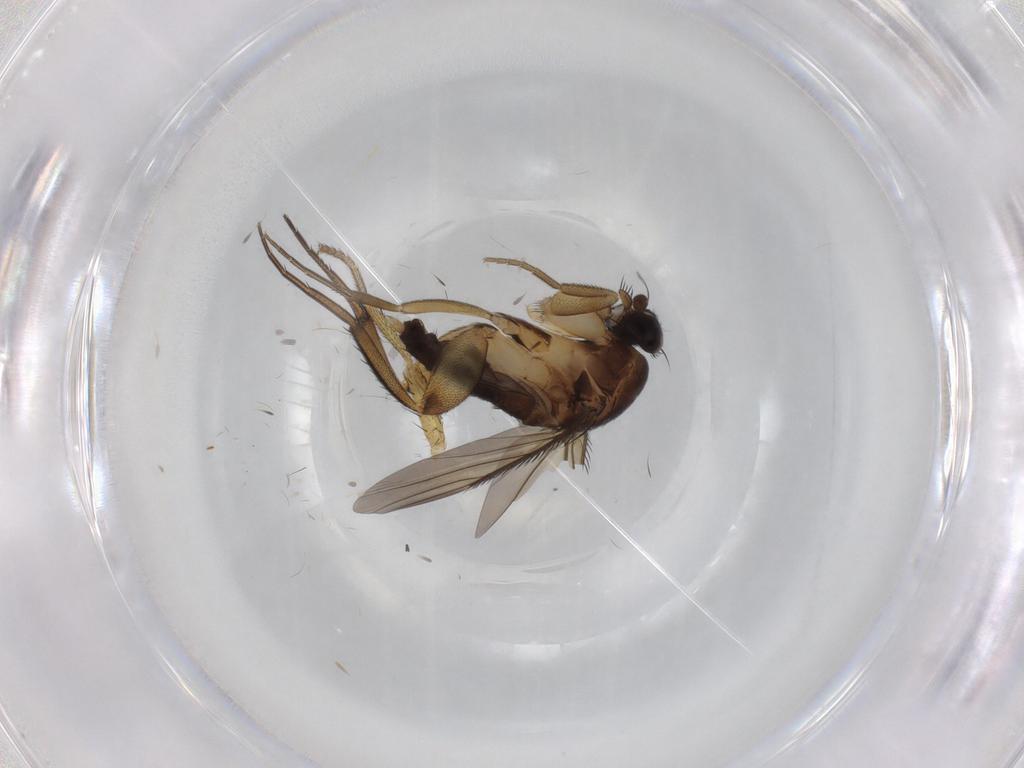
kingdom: Animalia
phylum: Arthropoda
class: Insecta
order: Diptera
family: Phoridae
